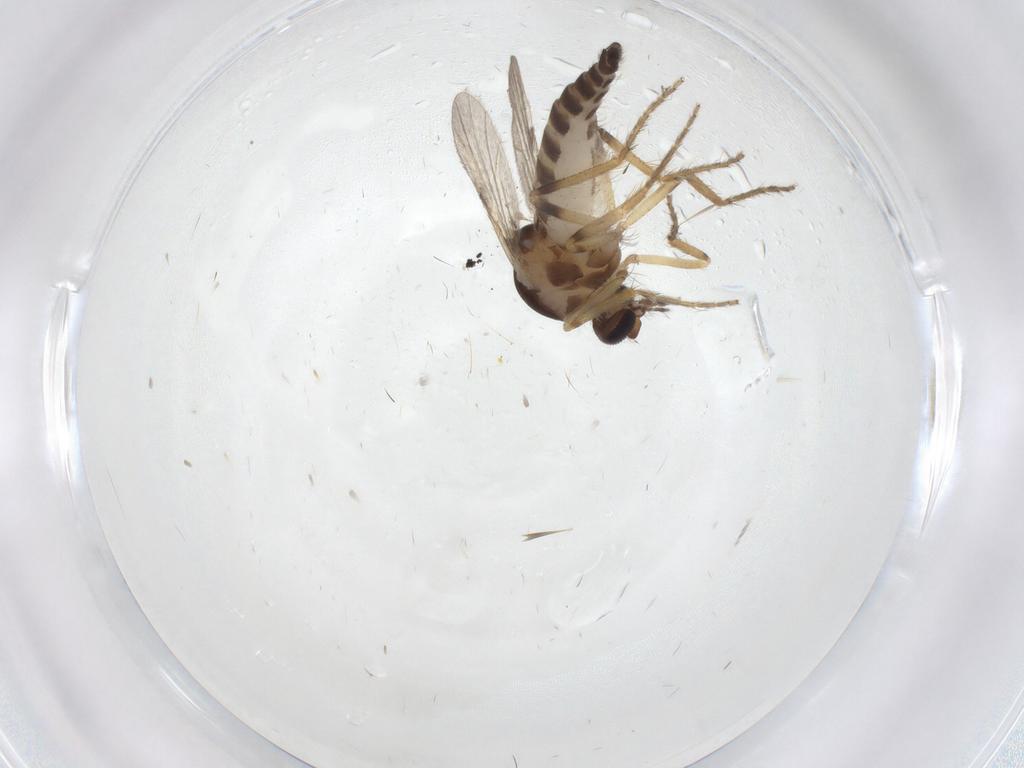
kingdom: Animalia
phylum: Arthropoda
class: Insecta
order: Diptera
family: Ceratopogonidae
